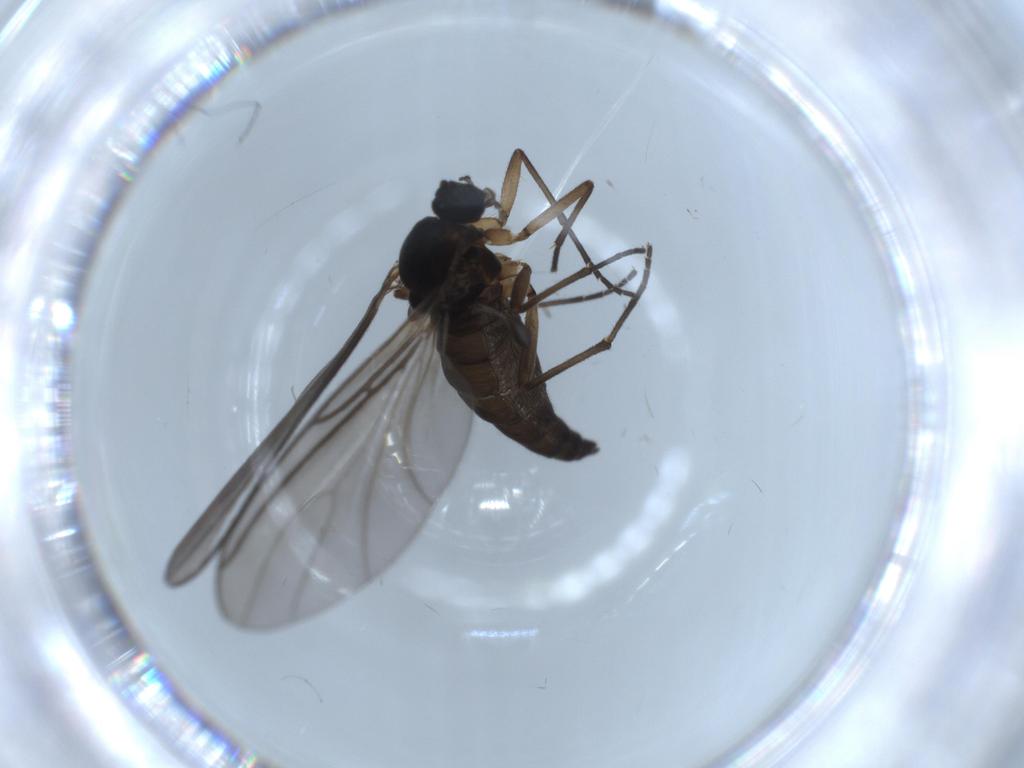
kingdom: Animalia
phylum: Arthropoda
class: Insecta
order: Diptera
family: Sciaridae
